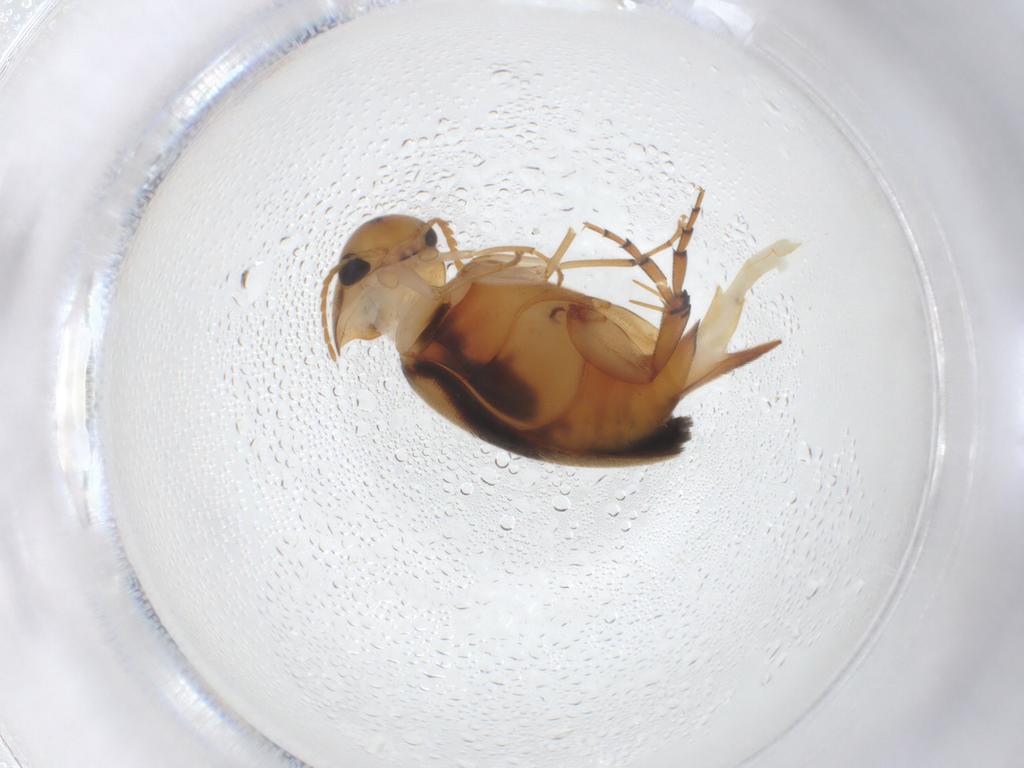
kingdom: Animalia
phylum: Arthropoda
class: Insecta
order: Coleoptera
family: Mordellidae
